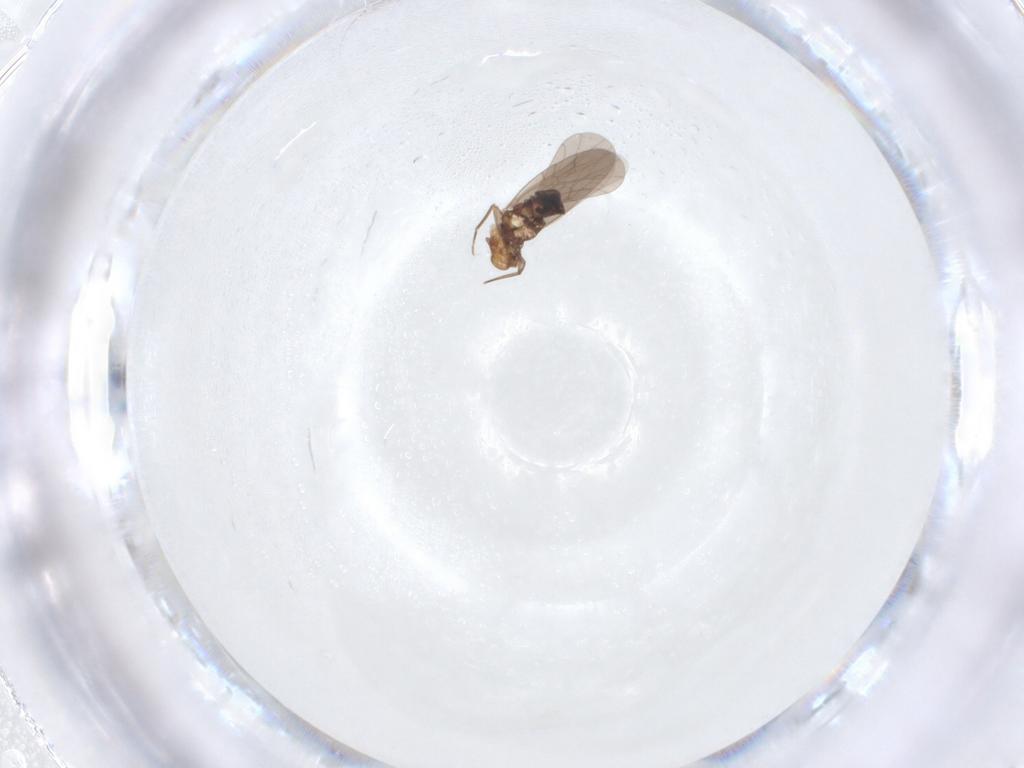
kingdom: Animalia
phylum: Arthropoda
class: Insecta
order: Psocodea
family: Lepidopsocidae
